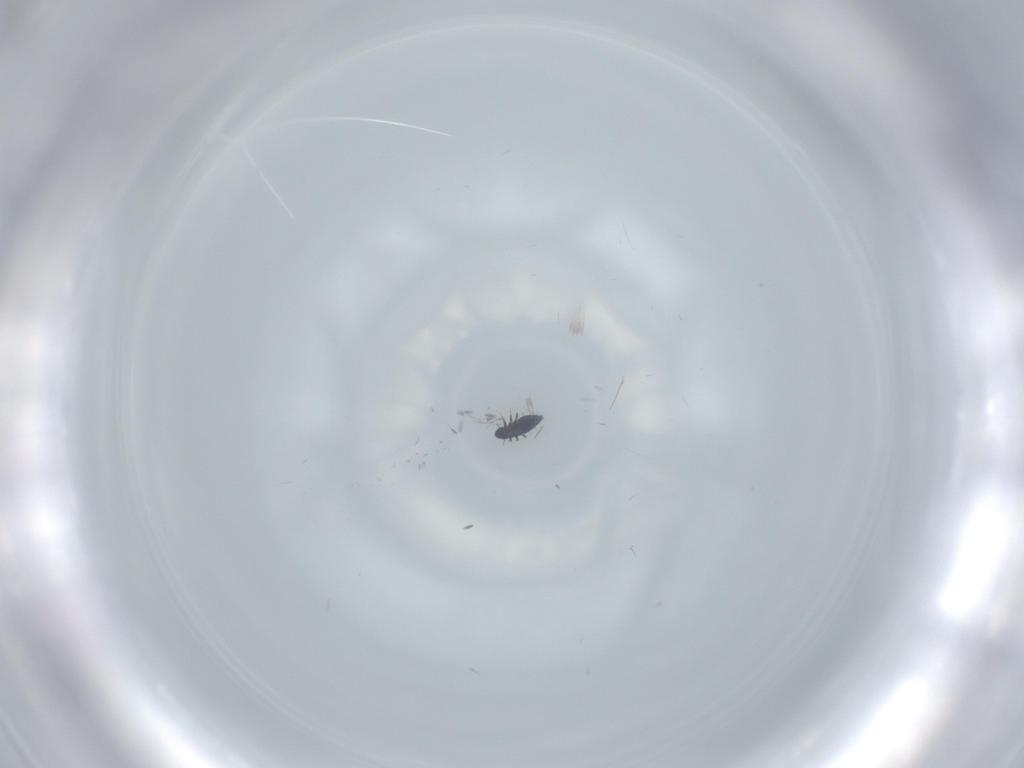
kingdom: Animalia
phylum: Arthropoda
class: Insecta
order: Coleoptera
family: Ripiphoridae
